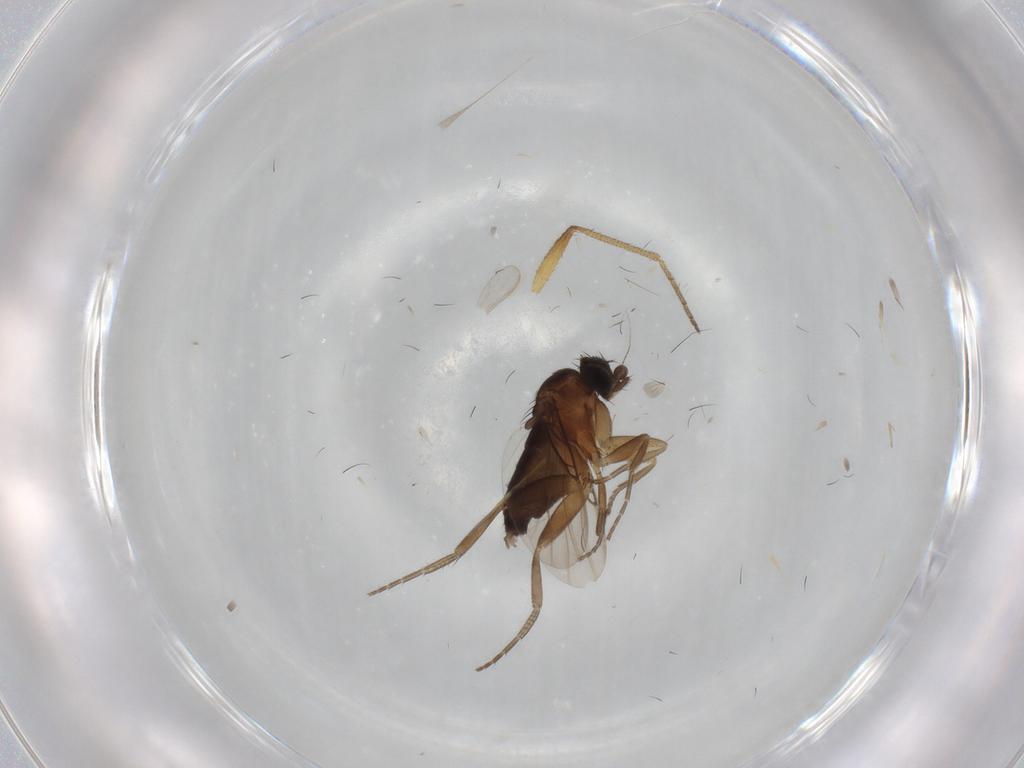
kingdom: Animalia
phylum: Arthropoda
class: Insecta
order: Diptera
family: Cecidomyiidae
